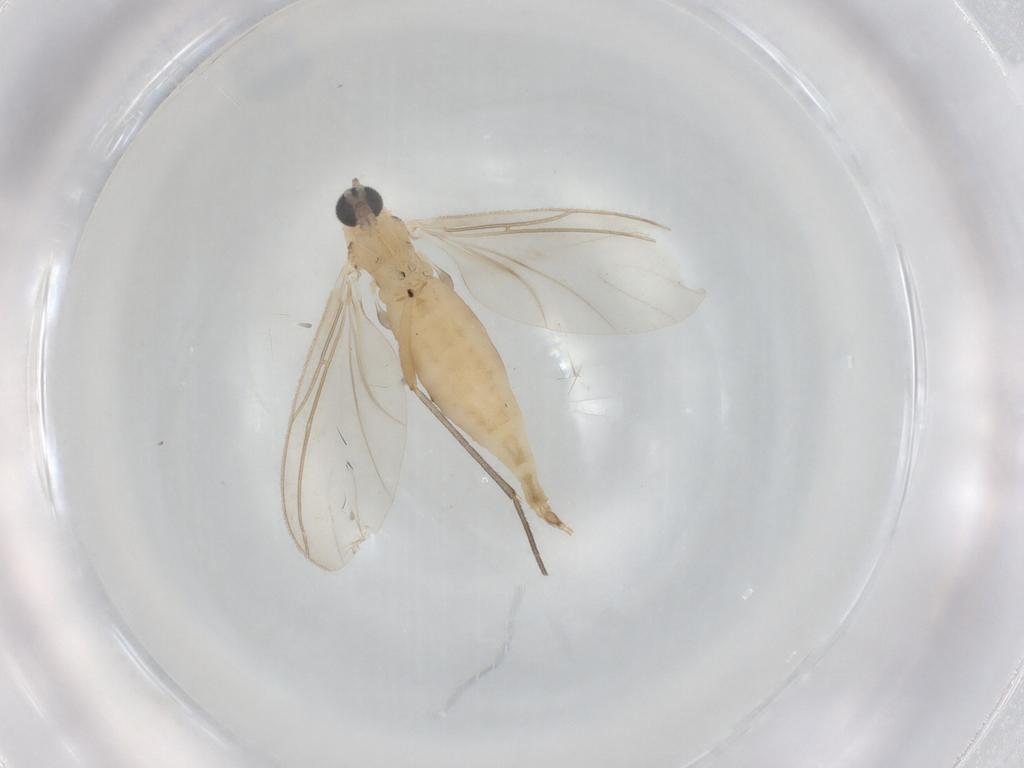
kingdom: Animalia
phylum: Arthropoda
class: Insecta
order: Diptera
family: Sciaridae
